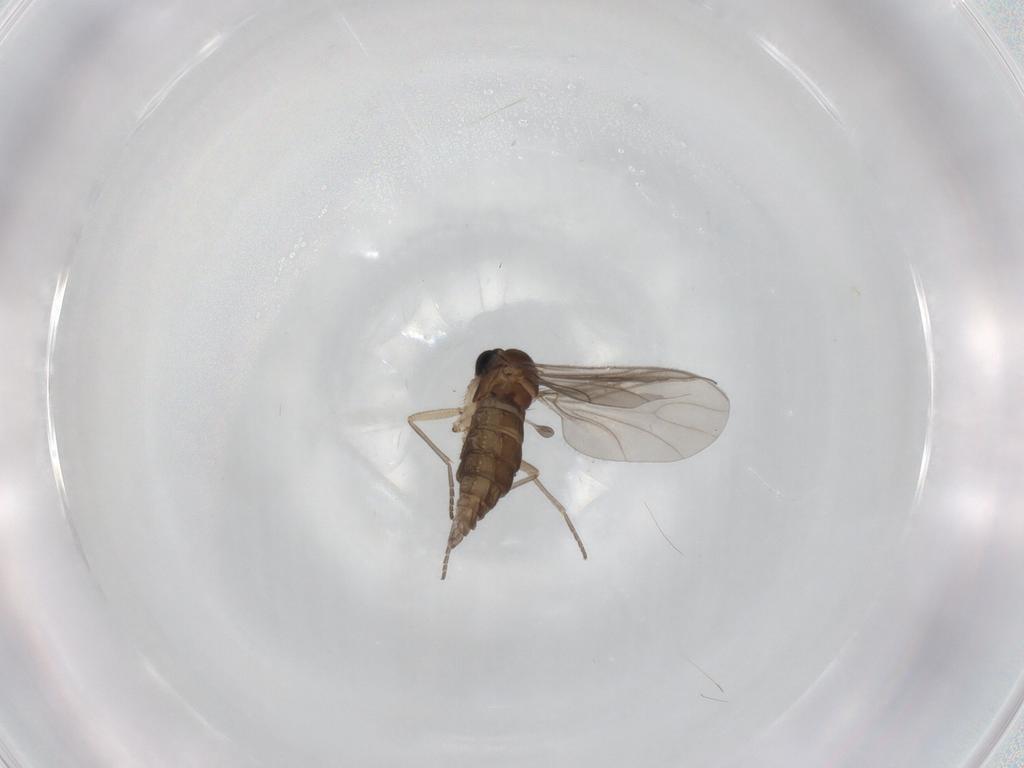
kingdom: Animalia
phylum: Arthropoda
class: Insecta
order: Diptera
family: Sciaridae
